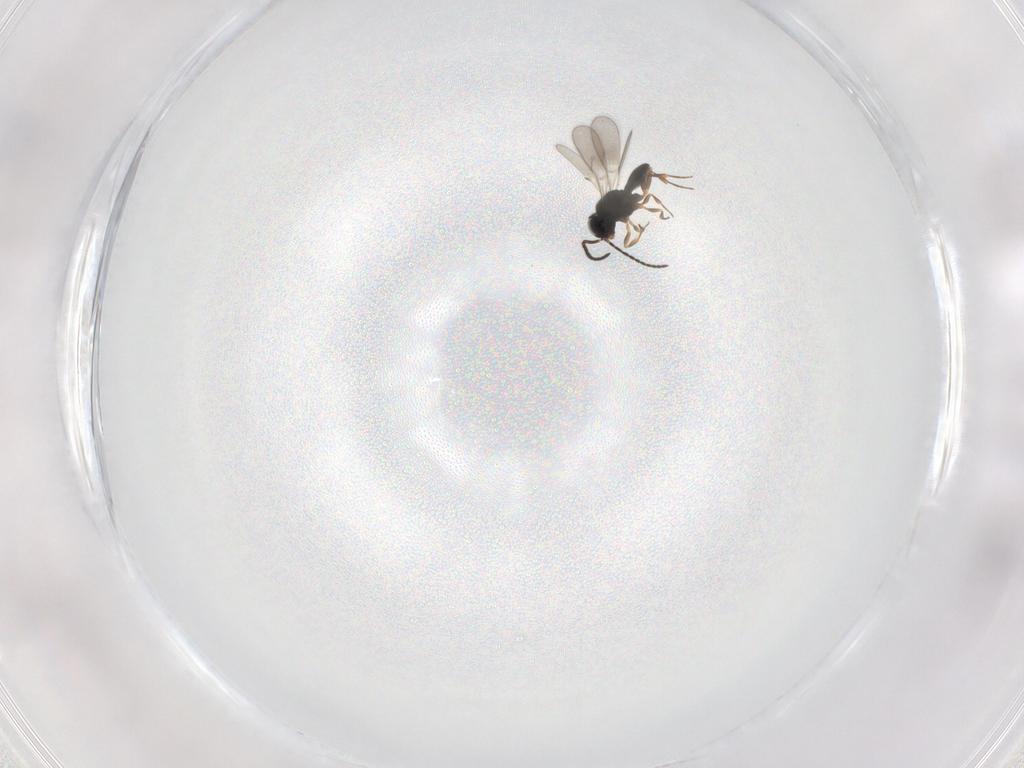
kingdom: Animalia
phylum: Arthropoda
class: Insecta
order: Hymenoptera
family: Scelionidae
